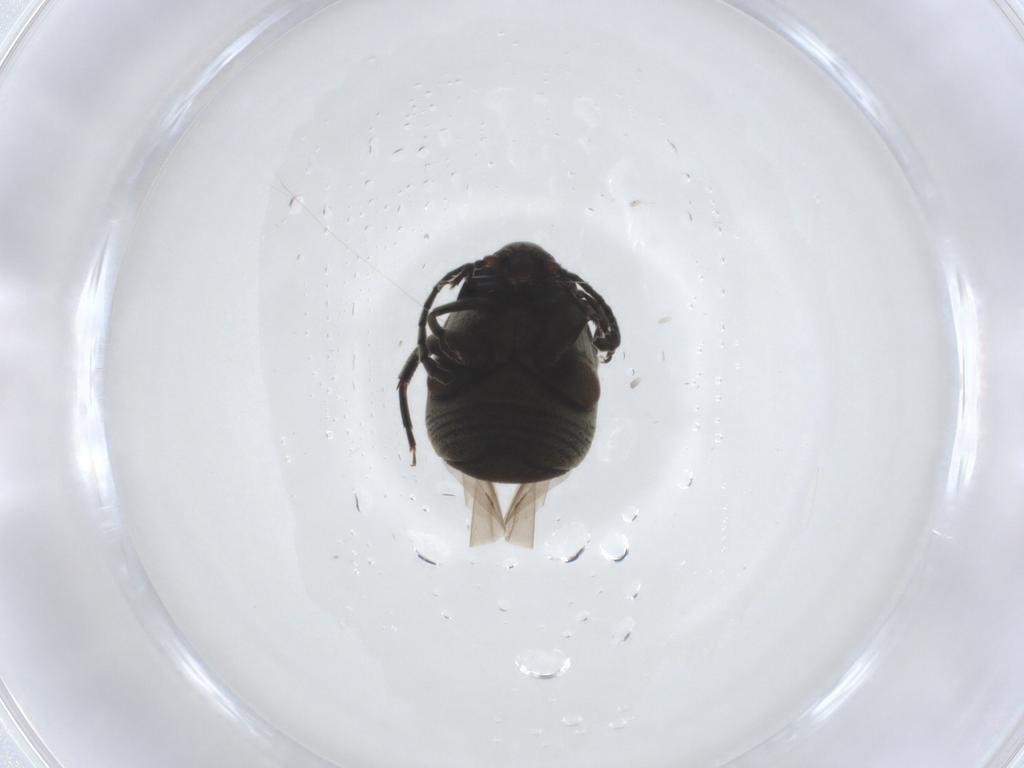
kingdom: Animalia
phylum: Arthropoda
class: Insecta
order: Coleoptera
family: Chrysomelidae
